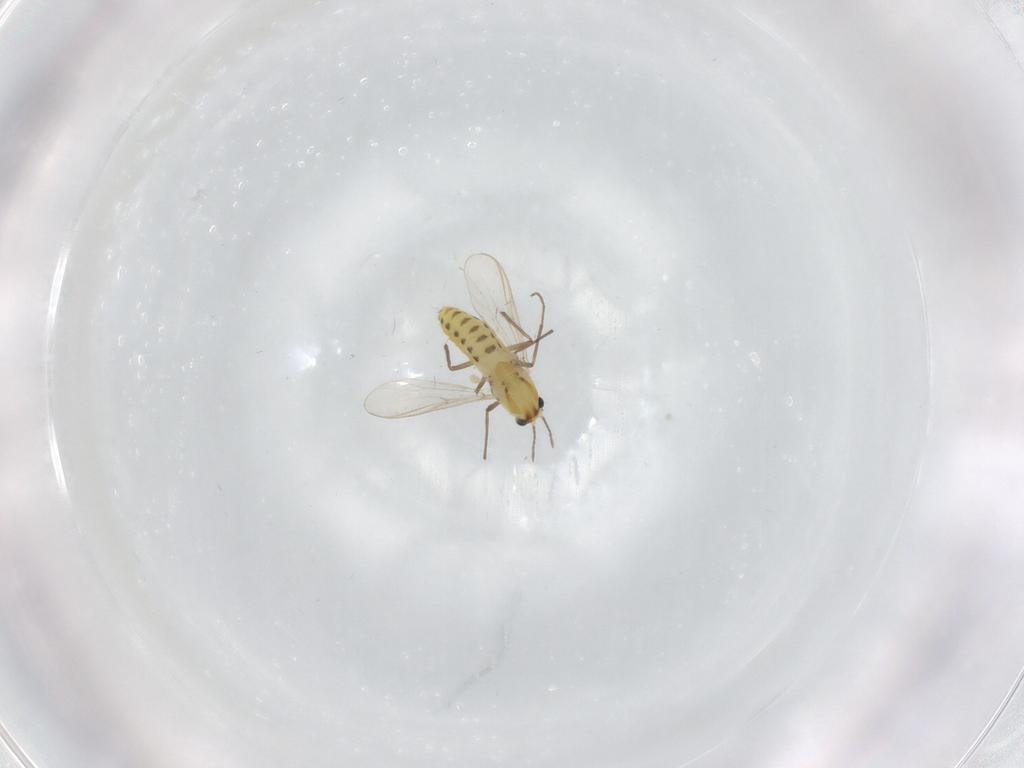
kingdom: Animalia
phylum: Arthropoda
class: Insecta
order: Diptera
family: Chironomidae
